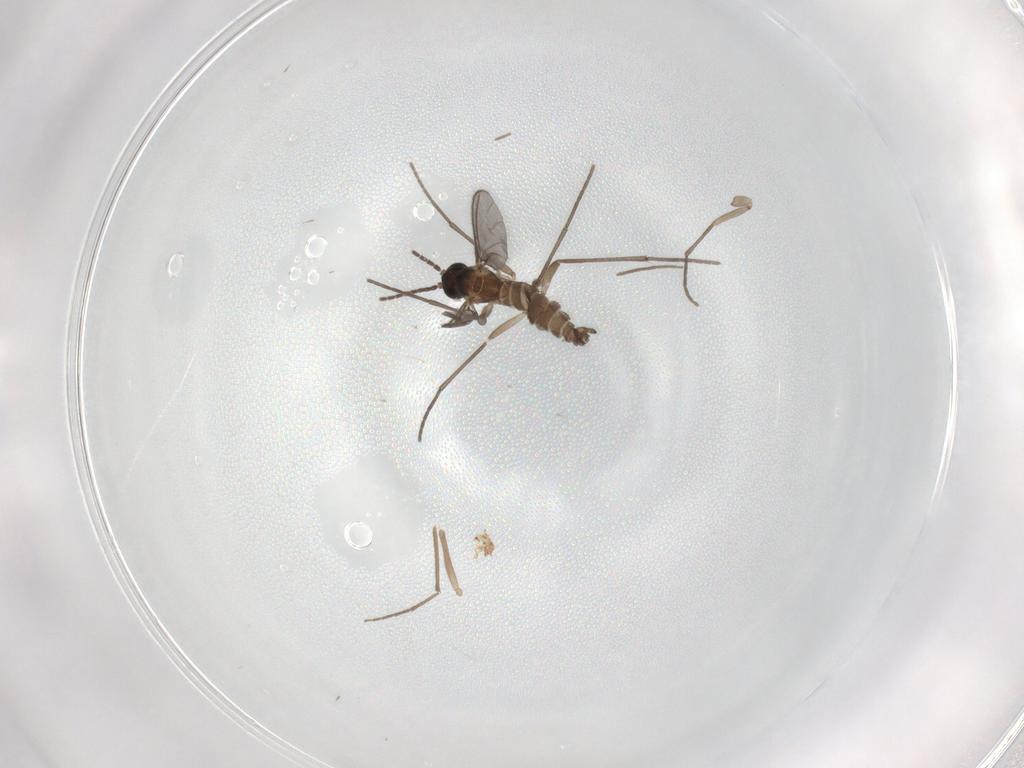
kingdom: Animalia
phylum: Arthropoda
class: Insecta
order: Diptera
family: Sciaridae
